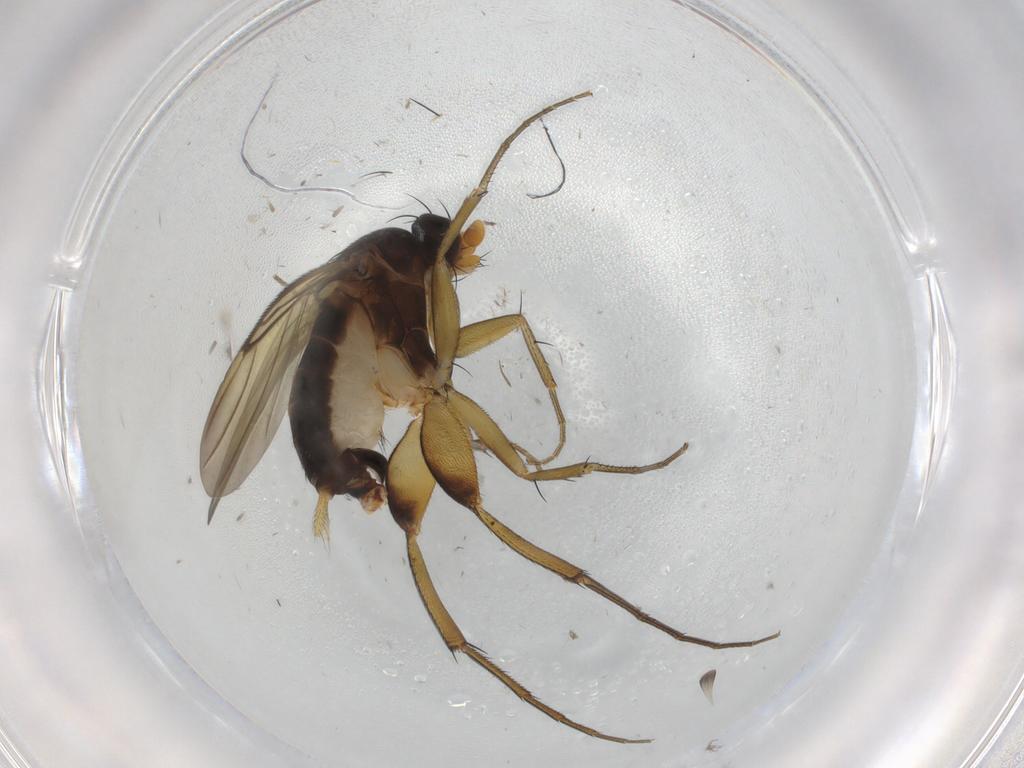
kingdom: Animalia
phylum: Arthropoda
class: Insecta
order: Diptera
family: Phoridae
